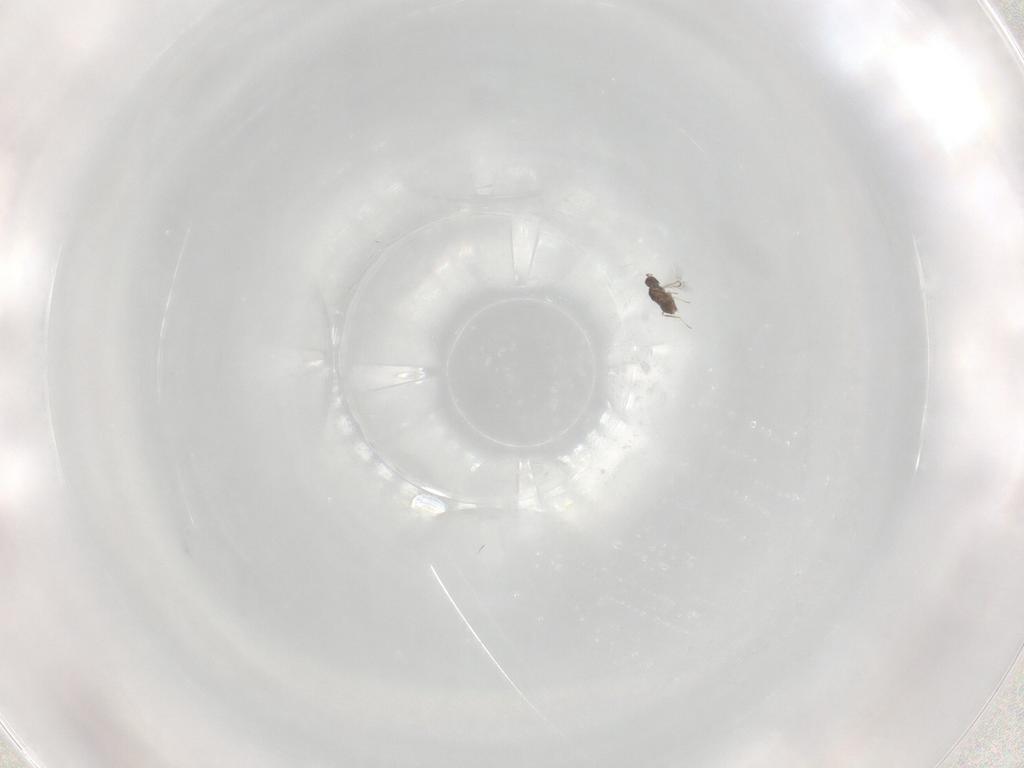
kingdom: Animalia
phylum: Arthropoda
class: Insecta
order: Hymenoptera
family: Mymaridae
